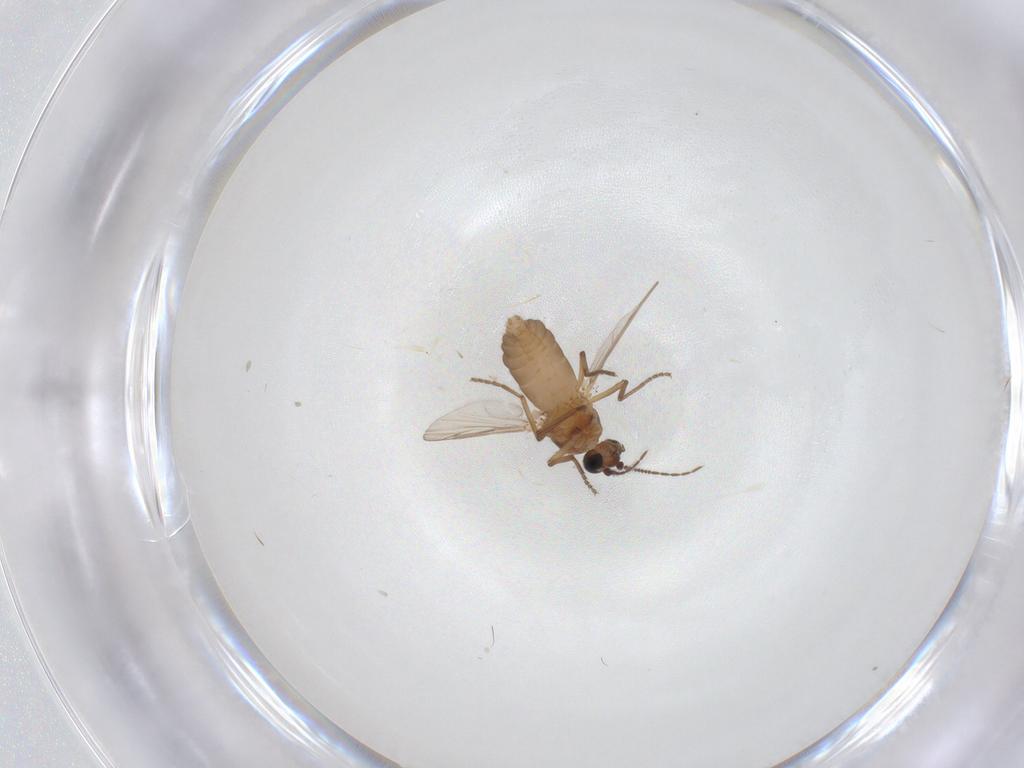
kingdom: Animalia
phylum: Arthropoda
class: Insecta
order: Diptera
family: Ceratopogonidae
